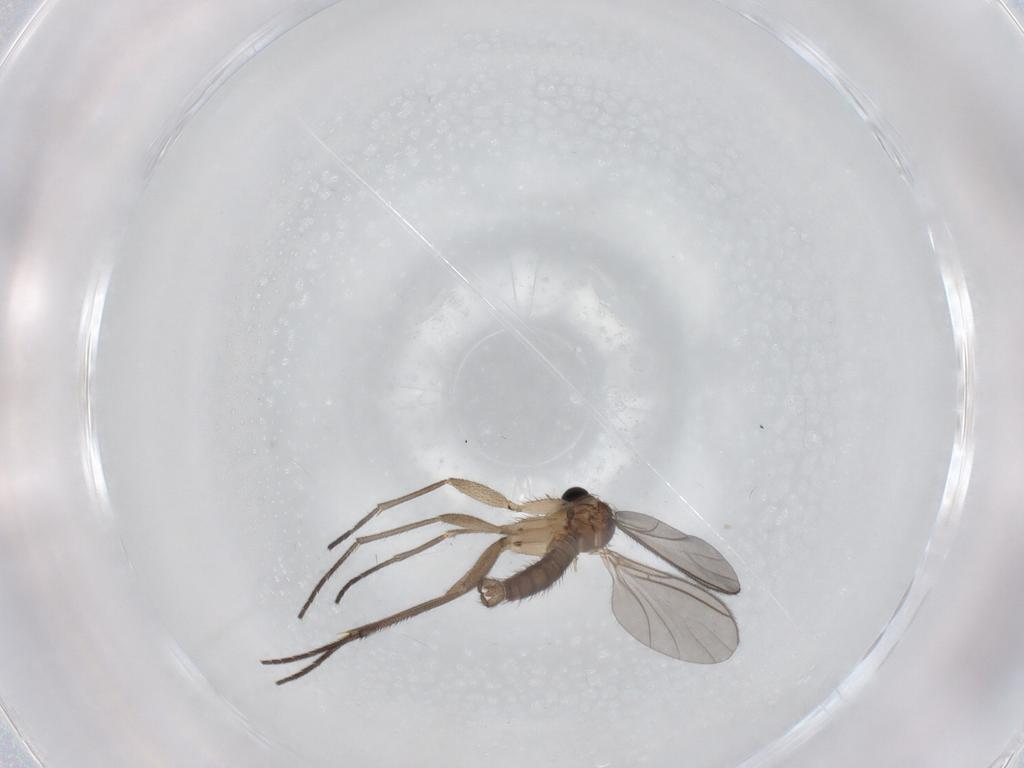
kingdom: Animalia
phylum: Arthropoda
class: Insecta
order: Diptera
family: Sciaridae
